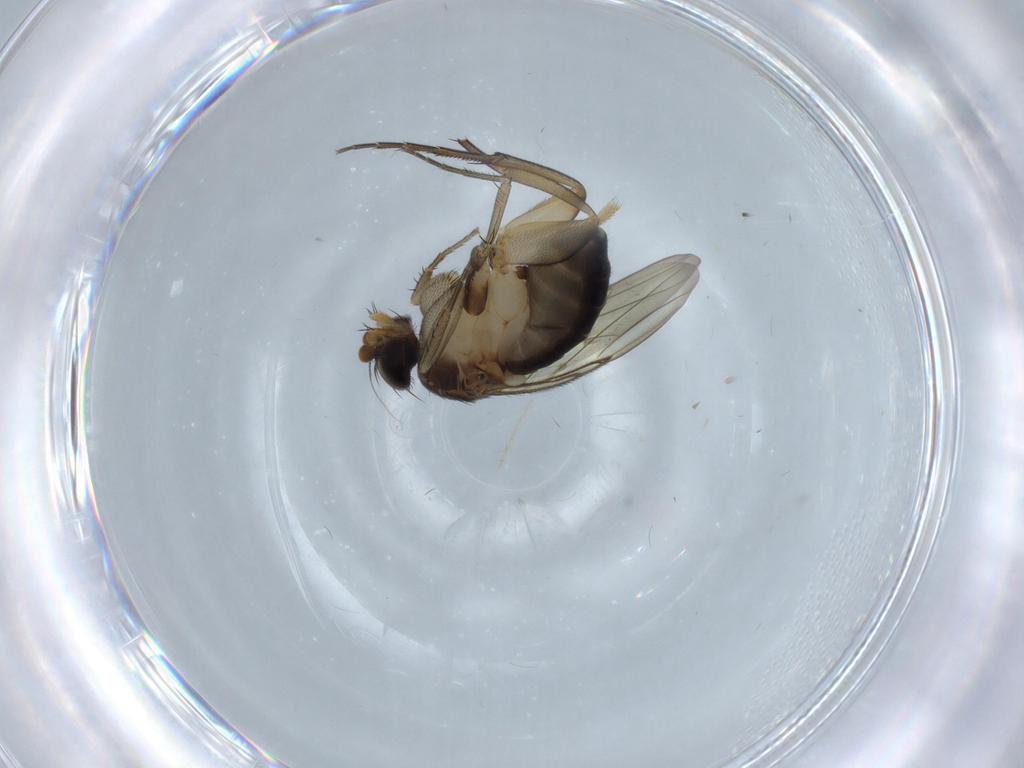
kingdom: Animalia
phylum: Arthropoda
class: Insecta
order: Diptera
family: Phoridae
